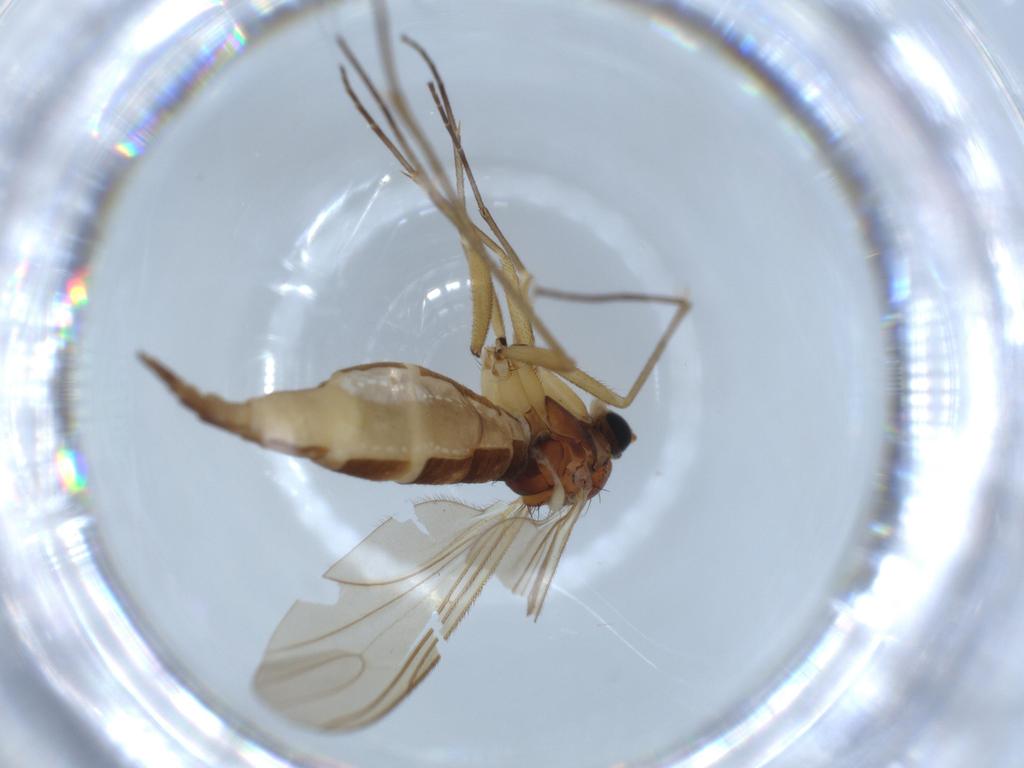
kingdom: Animalia
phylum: Arthropoda
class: Insecta
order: Diptera
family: Sciaridae
